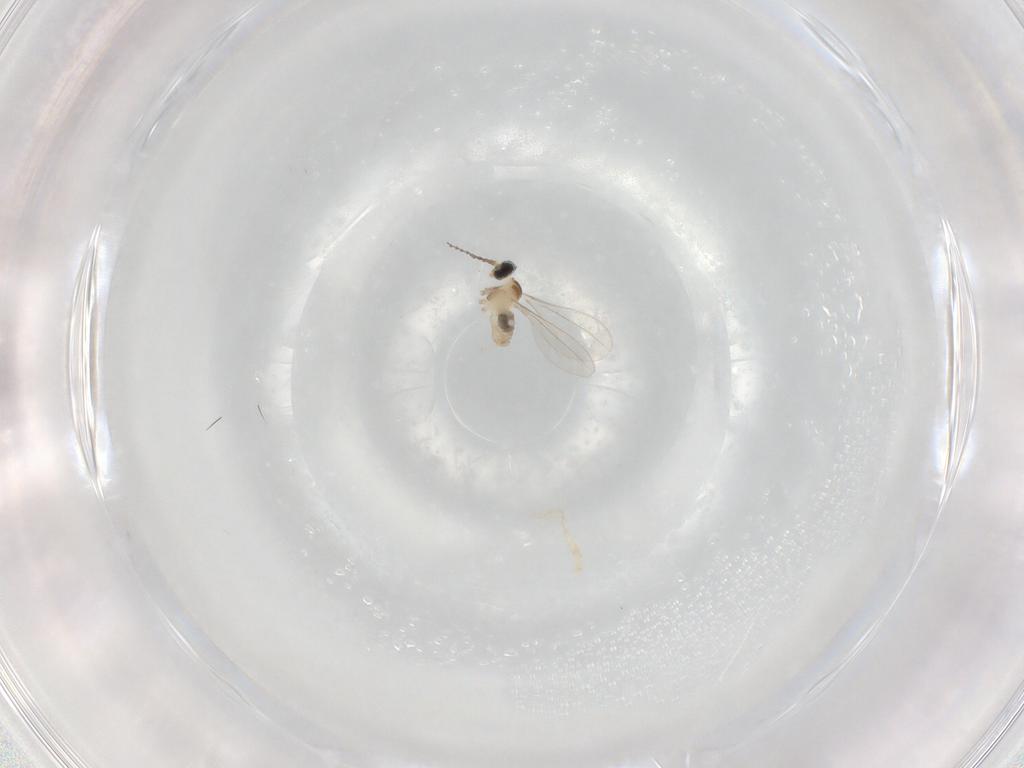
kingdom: Animalia
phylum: Arthropoda
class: Insecta
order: Diptera
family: Cecidomyiidae
